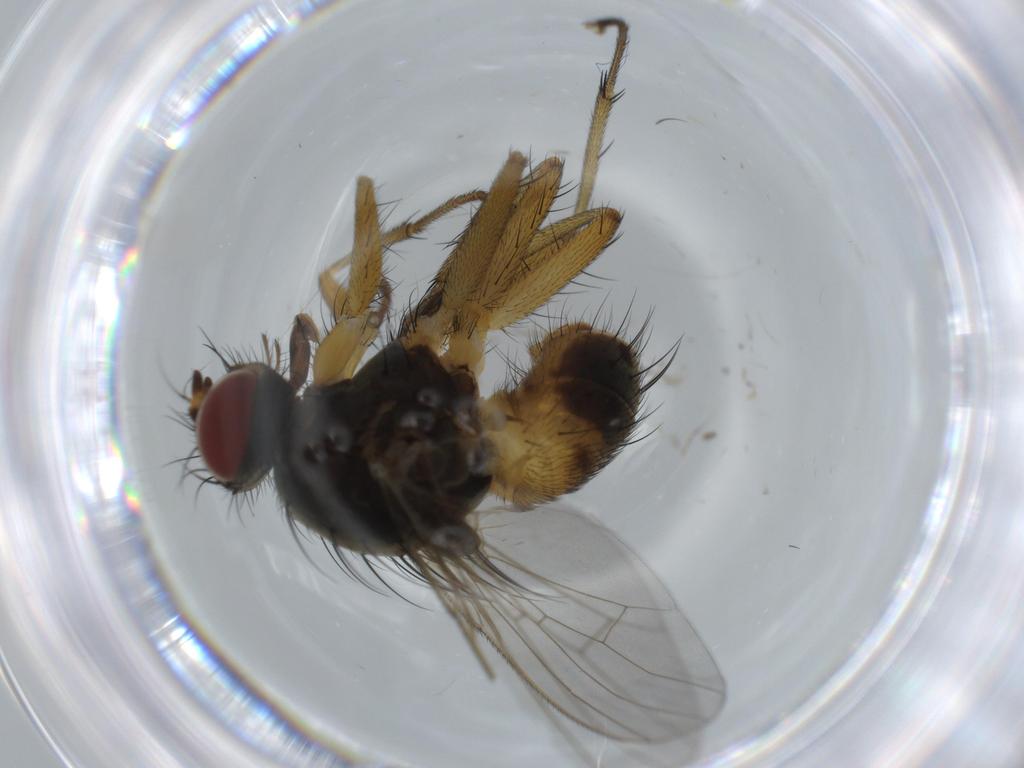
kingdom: Animalia
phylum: Arthropoda
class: Insecta
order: Diptera
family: Muscidae
